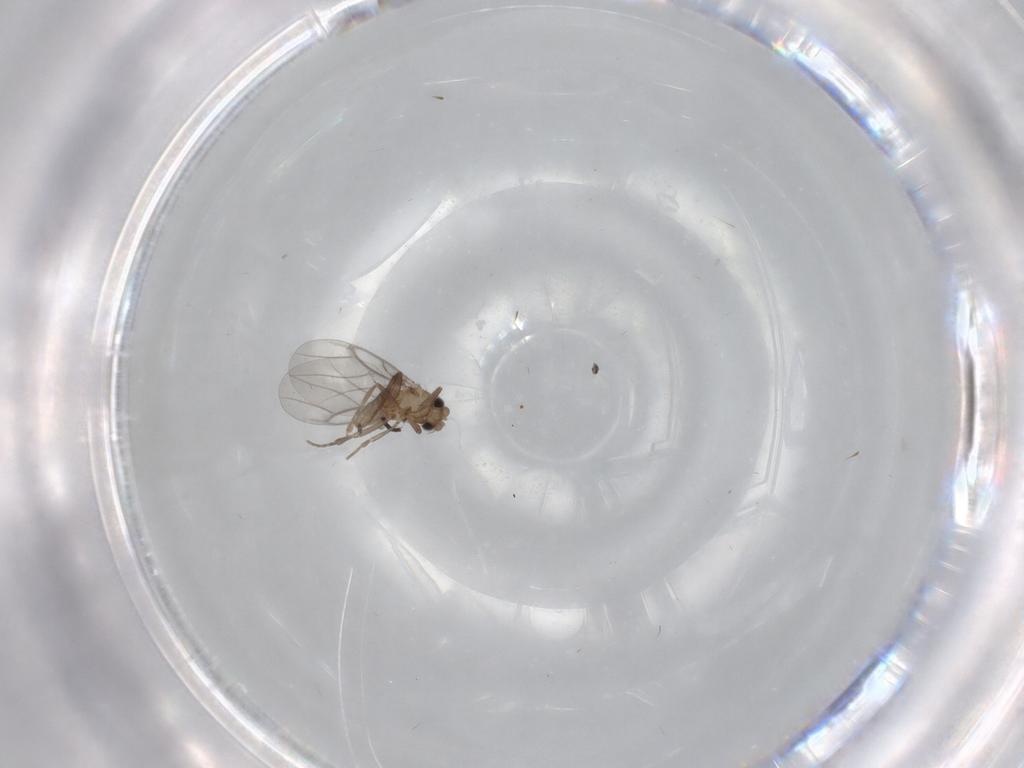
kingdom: Animalia
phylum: Arthropoda
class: Insecta
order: Diptera
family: Sciaridae
